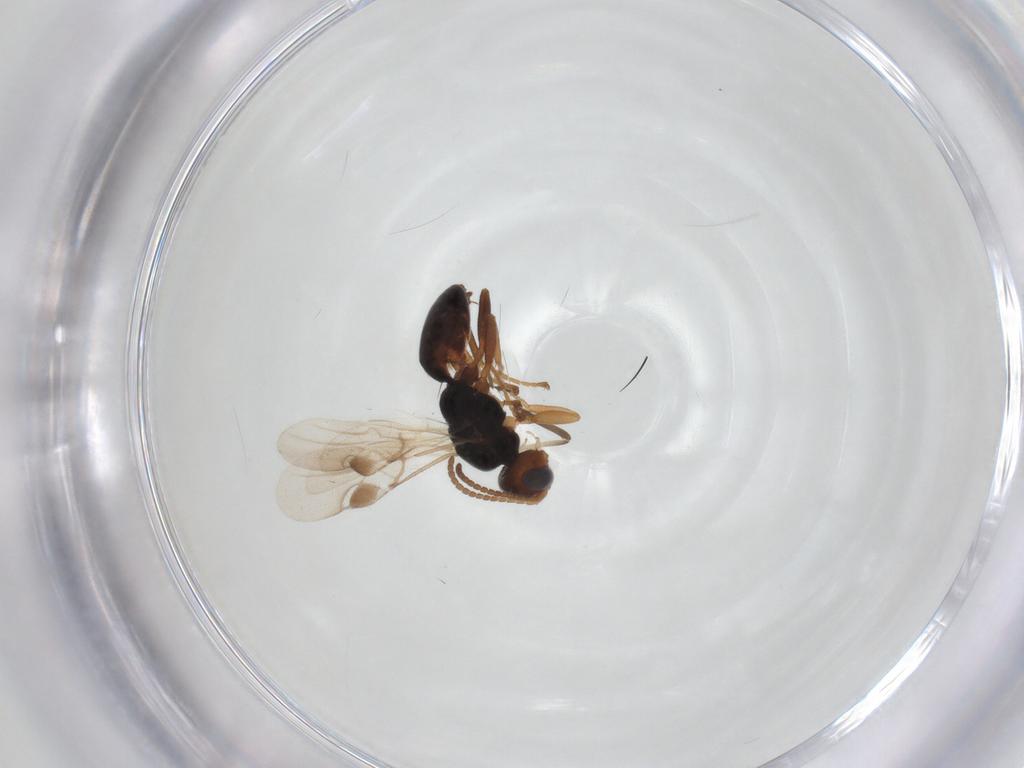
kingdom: Animalia
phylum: Arthropoda
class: Insecta
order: Hymenoptera
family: Braconidae
